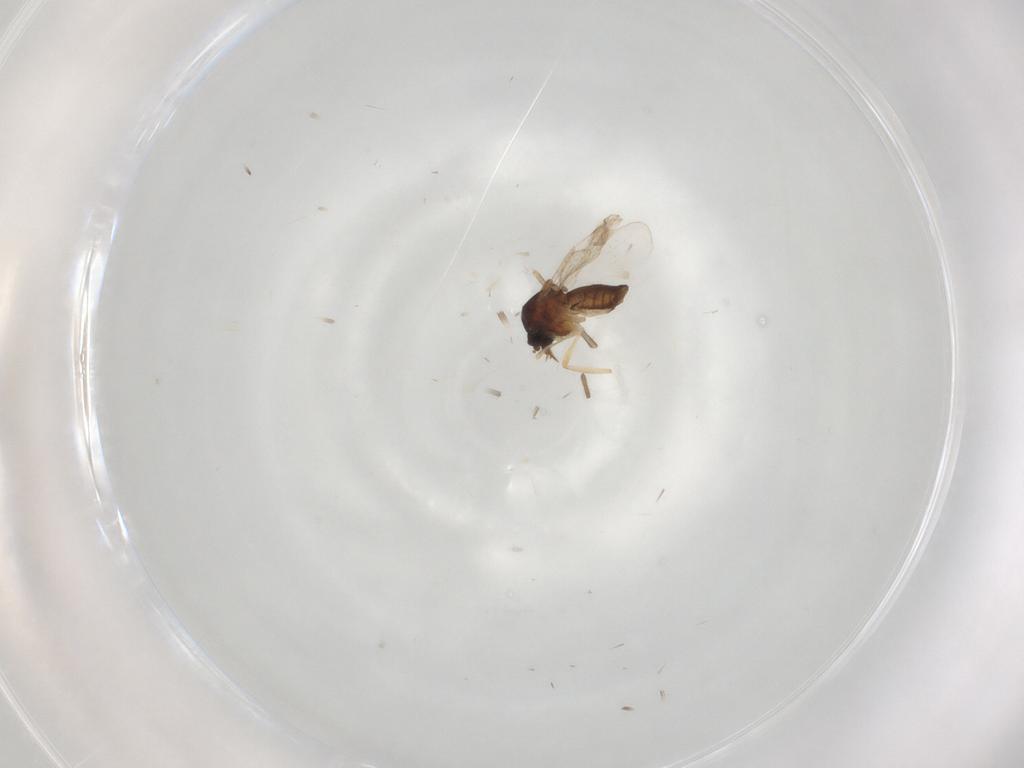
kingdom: Animalia
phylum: Arthropoda
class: Insecta
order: Diptera
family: Ceratopogonidae
